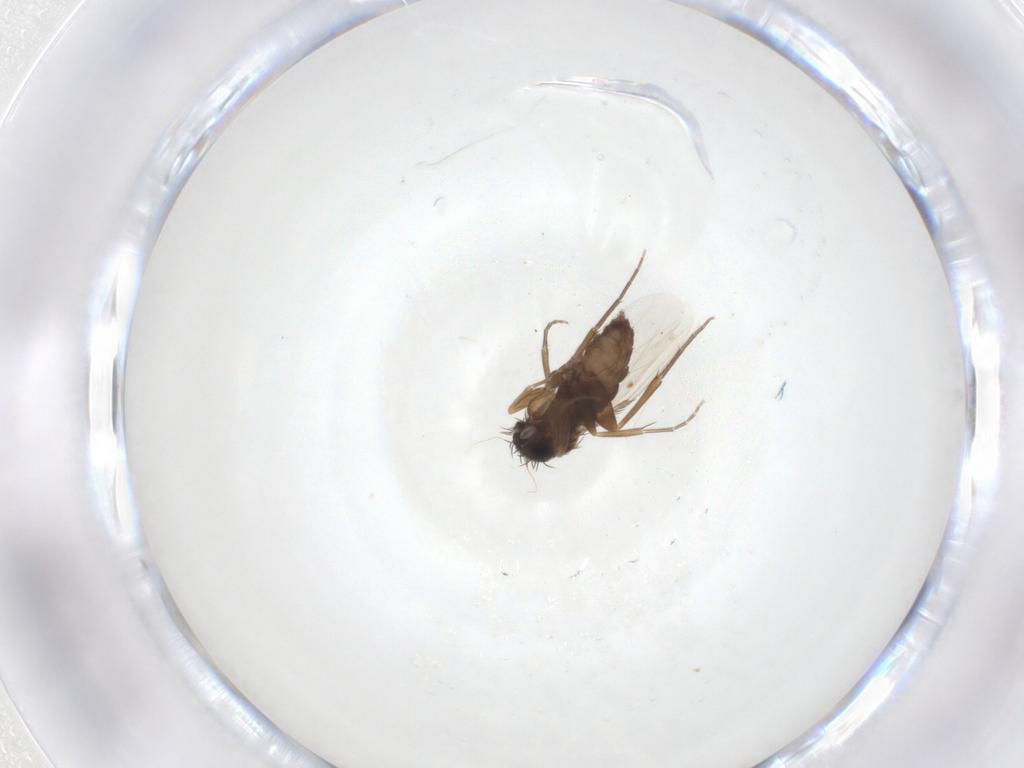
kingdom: Animalia
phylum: Arthropoda
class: Insecta
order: Diptera
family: Phoridae
